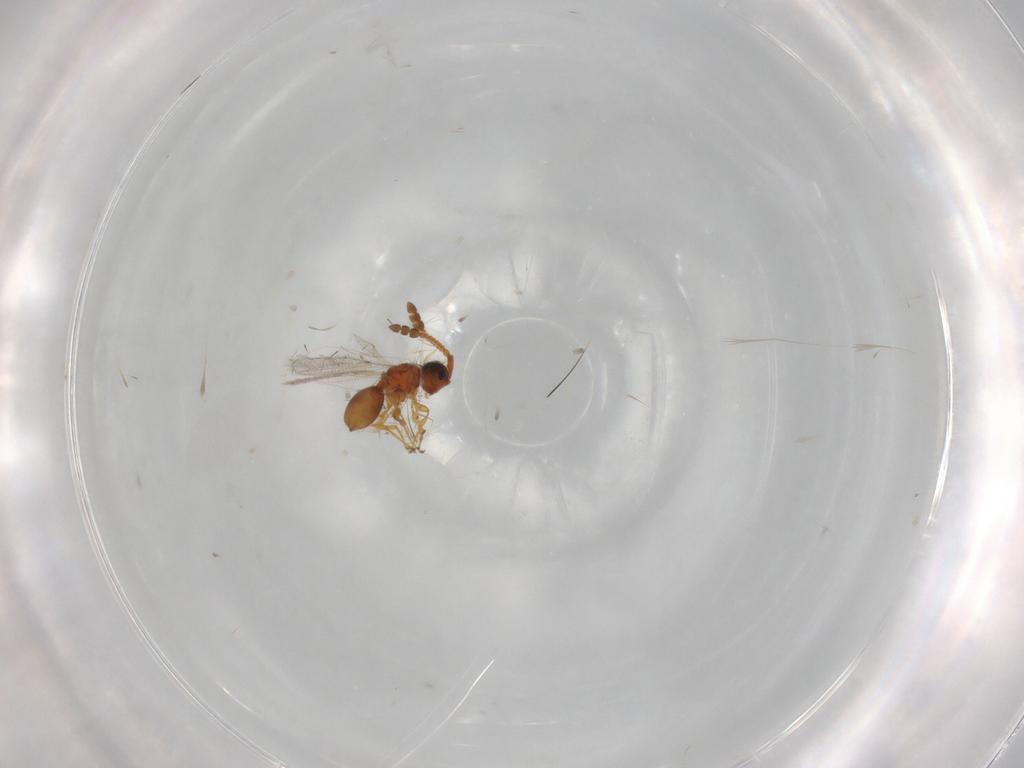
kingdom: Animalia
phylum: Arthropoda
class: Insecta
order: Hymenoptera
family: Diapriidae
